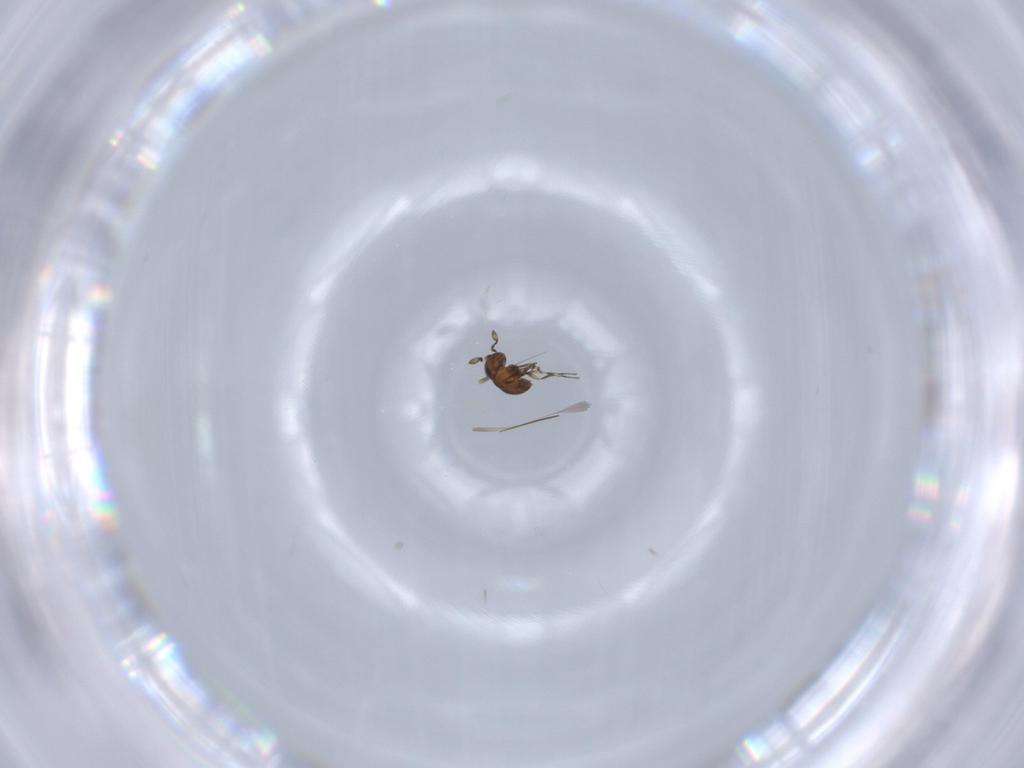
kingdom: Animalia
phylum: Arthropoda
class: Insecta
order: Hymenoptera
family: Scelionidae
